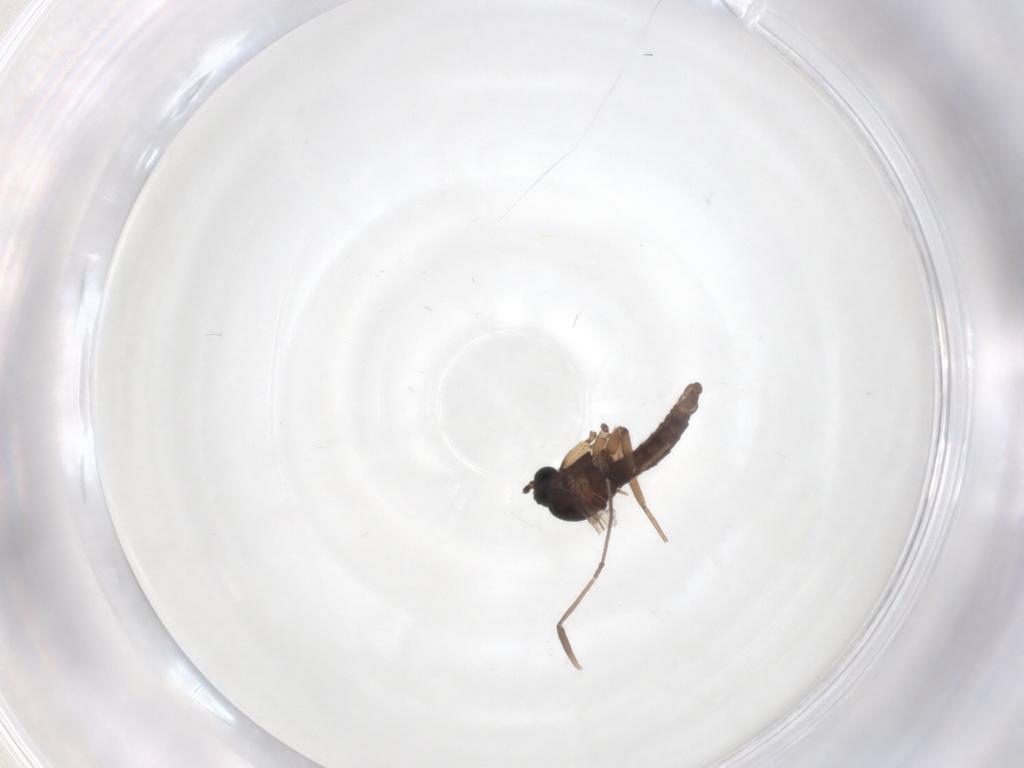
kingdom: Animalia
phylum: Arthropoda
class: Insecta
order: Diptera
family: Sciaridae
